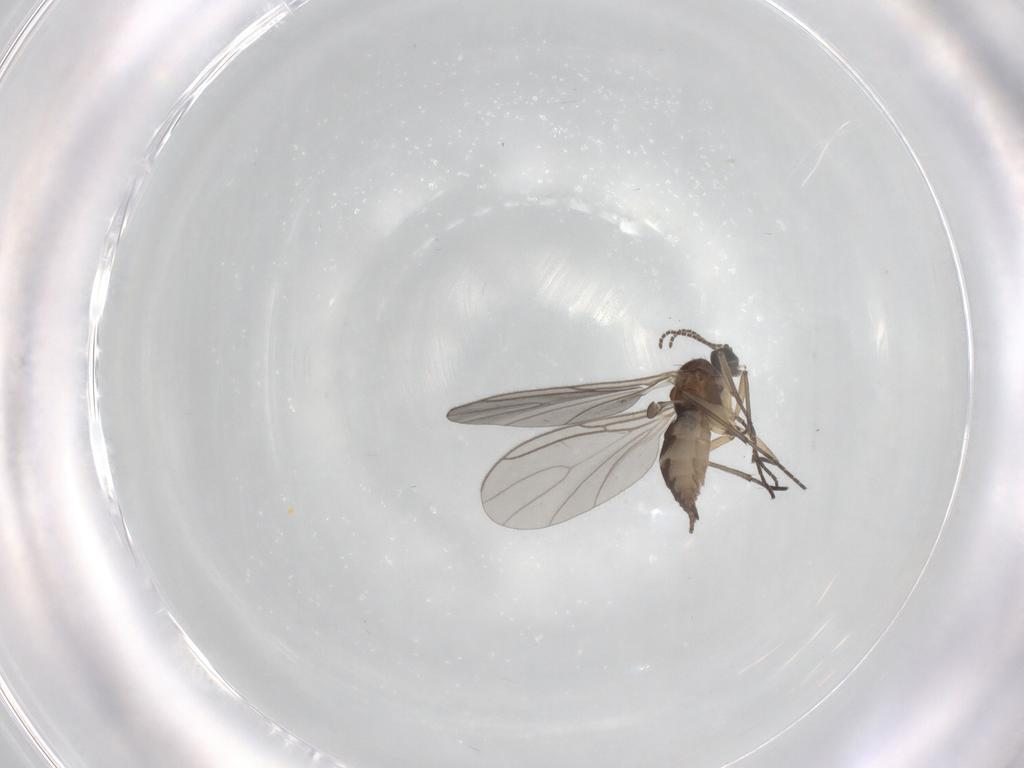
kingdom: Animalia
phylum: Arthropoda
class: Insecta
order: Diptera
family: Sciaridae
